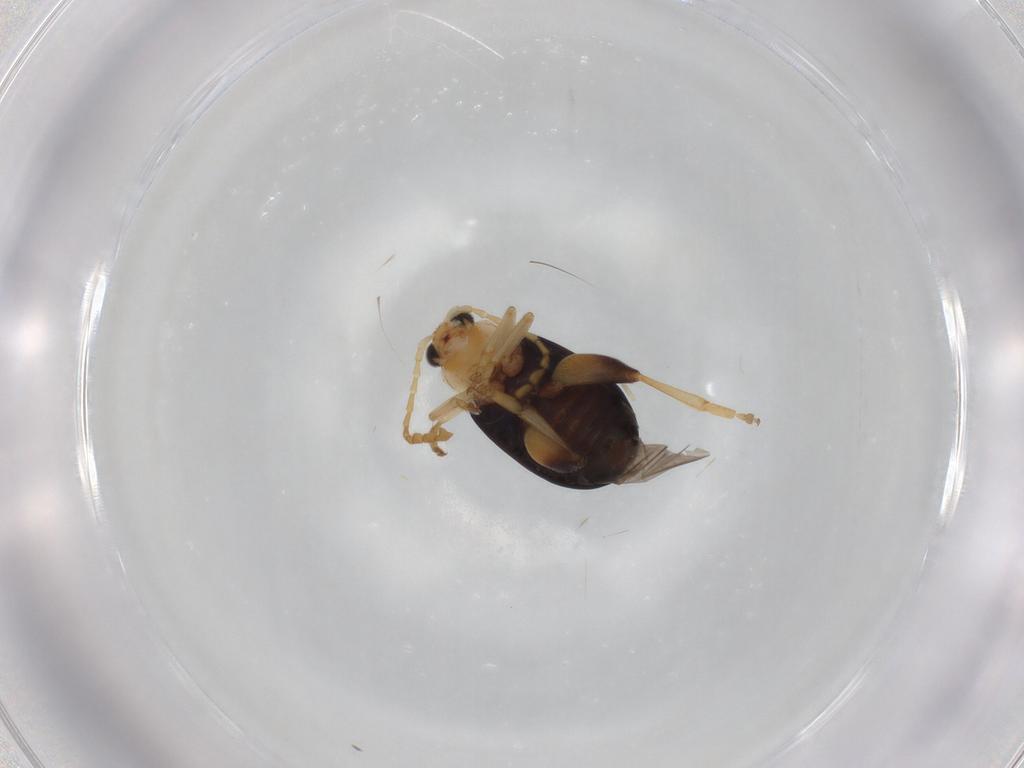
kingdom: Animalia
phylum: Arthropoda
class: Insecta
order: Coleoptera
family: Chrysomelidae
